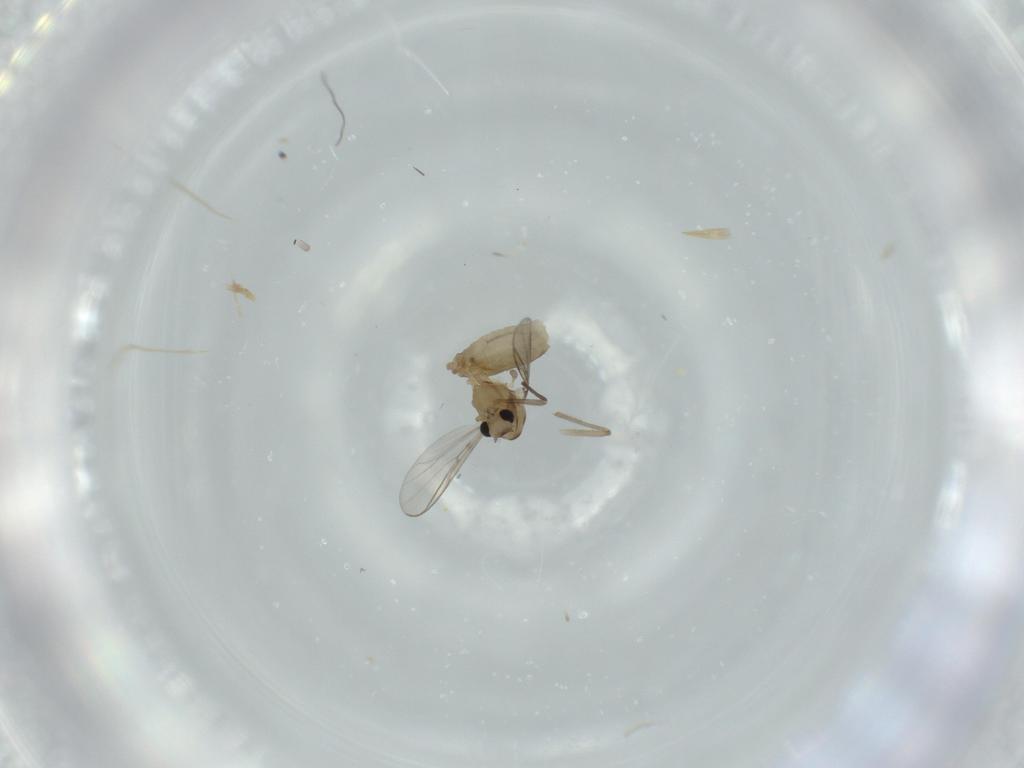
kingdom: Animalia
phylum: Arthropoda
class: Insecta
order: Diptera
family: Chironomidae
